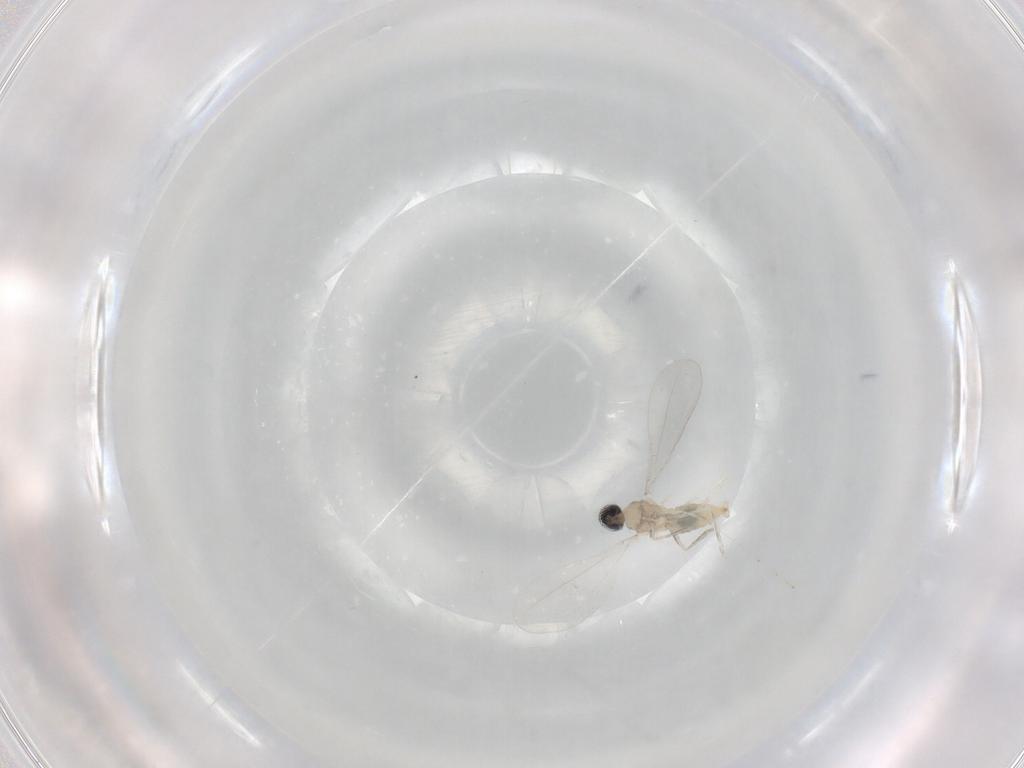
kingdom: Animalia
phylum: Arthropoda
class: Insecta
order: Diptera
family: Cecidomyiidae
